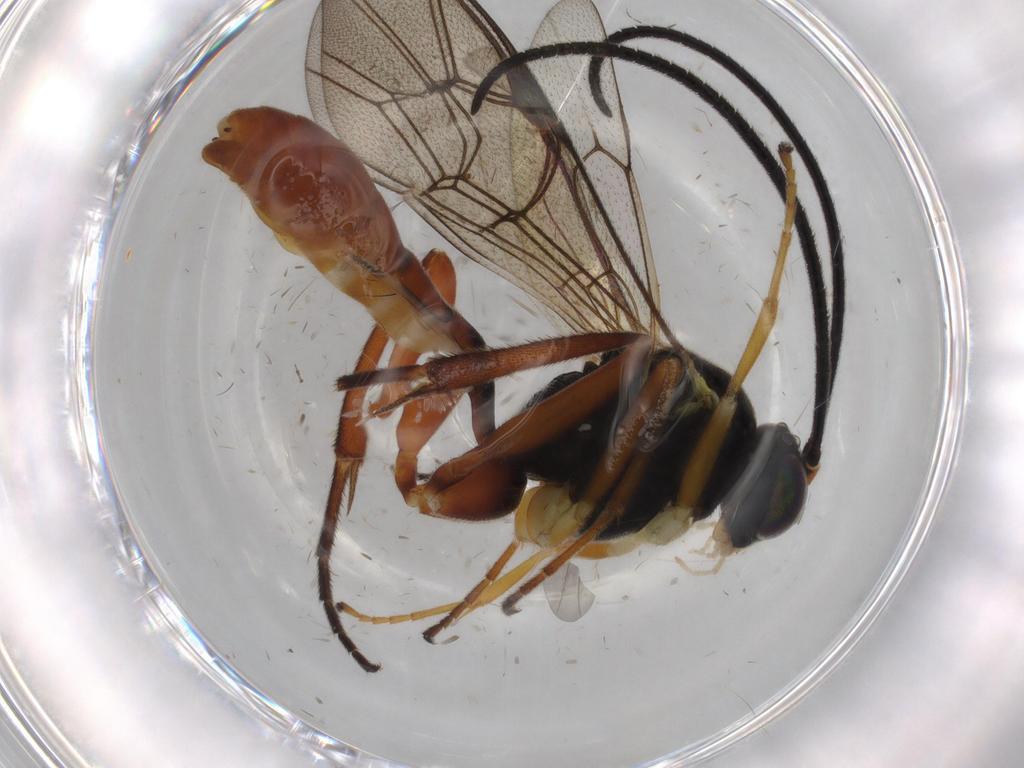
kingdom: Animalia
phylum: Arthropoda
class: Insecta
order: Hymenoptera
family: Platygastridae
